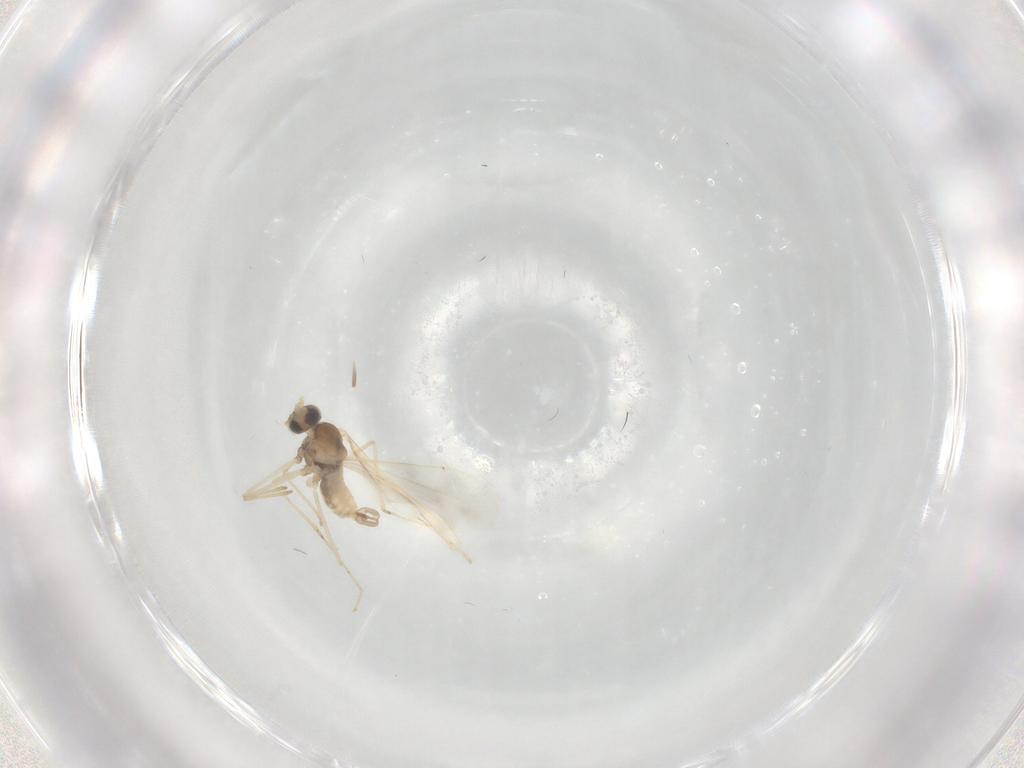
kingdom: Animalia
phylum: Arthropoda
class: Insecta
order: Diptera
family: Cecidomyiidae
